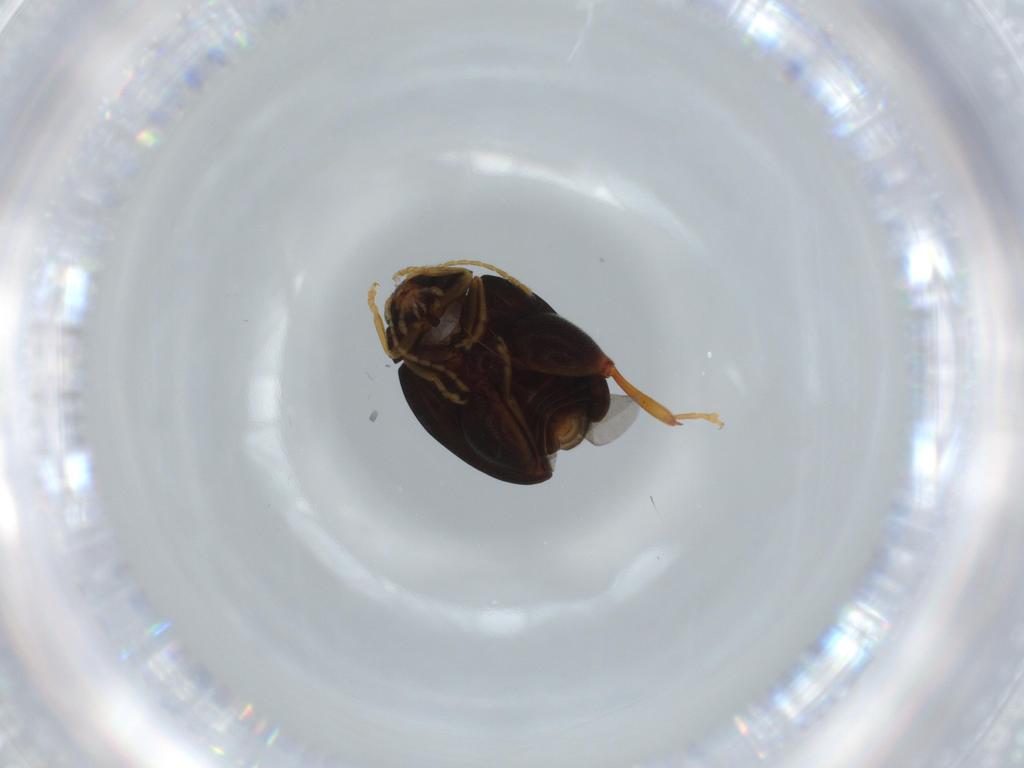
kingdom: Animalia
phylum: Arthropoda
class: Insecta
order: Coleoptera
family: Chrysomelidae
